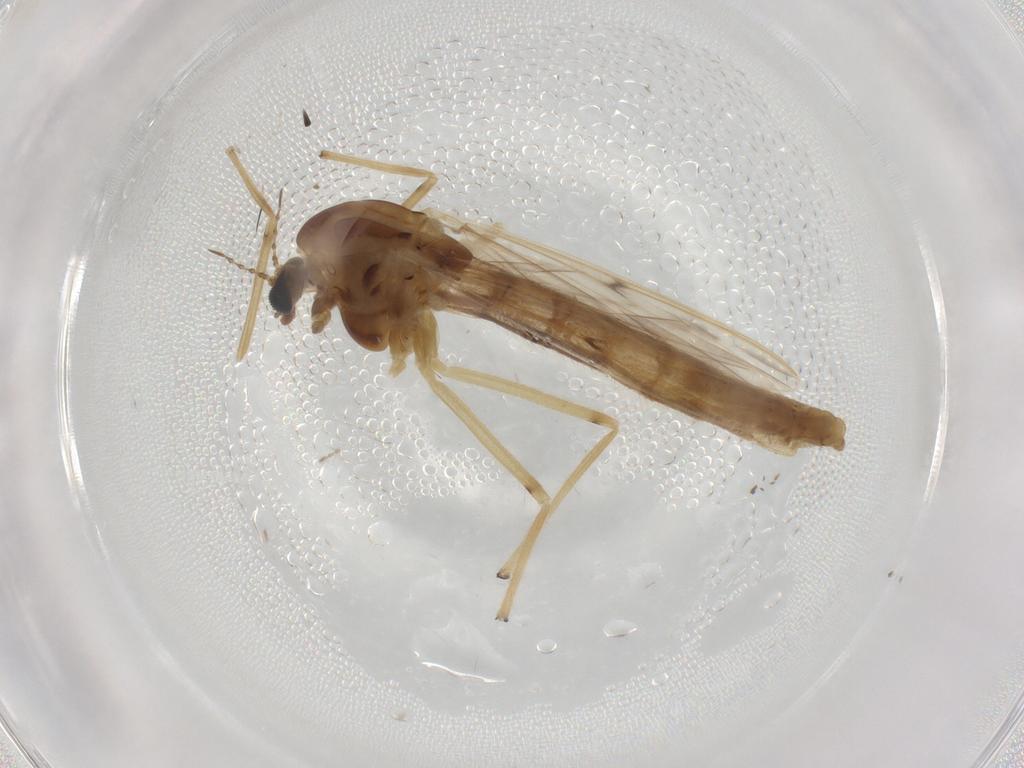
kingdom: Animalia
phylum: Arthropoda
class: Insecta
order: Diptera
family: Chironomidae
